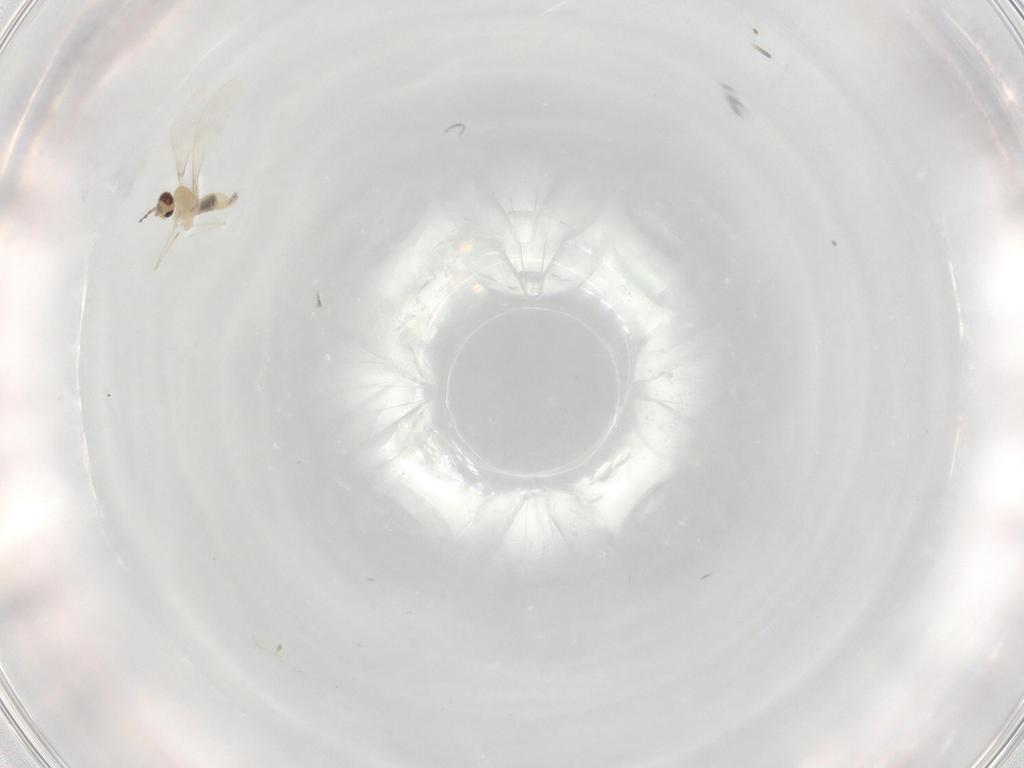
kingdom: Animalia
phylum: Arthropoda
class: Insecta
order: Diptera
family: Cecidomyiidae
